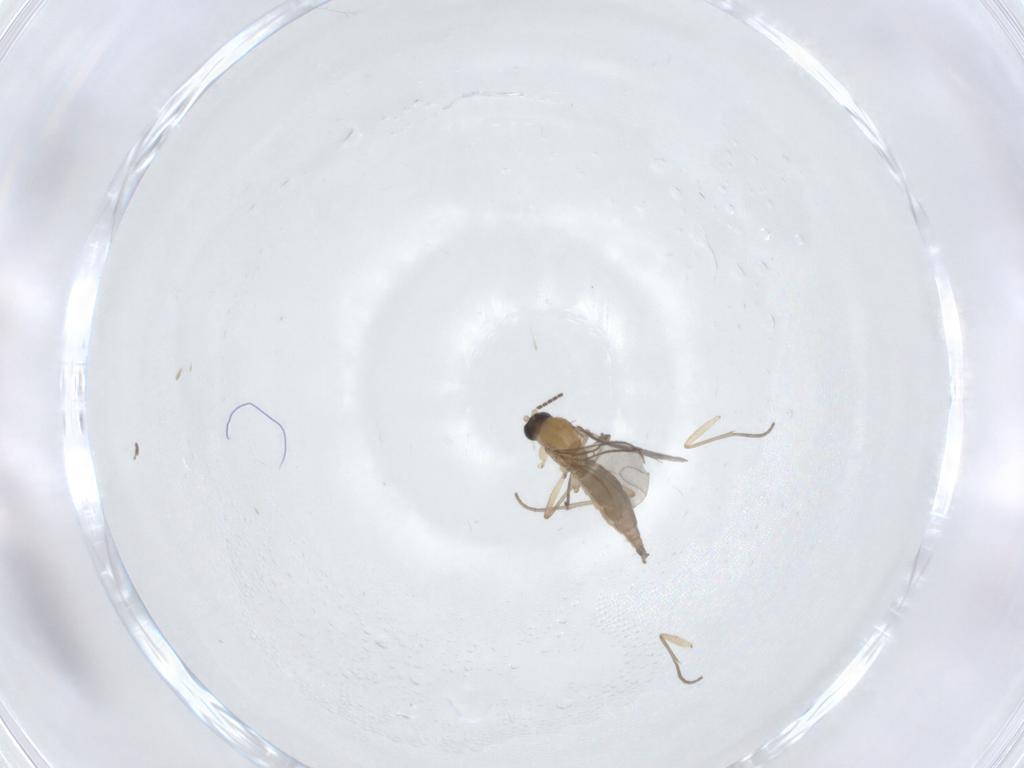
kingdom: Animalia
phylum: Arthropoda
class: Insecta
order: Diptera
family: Sciaridae
